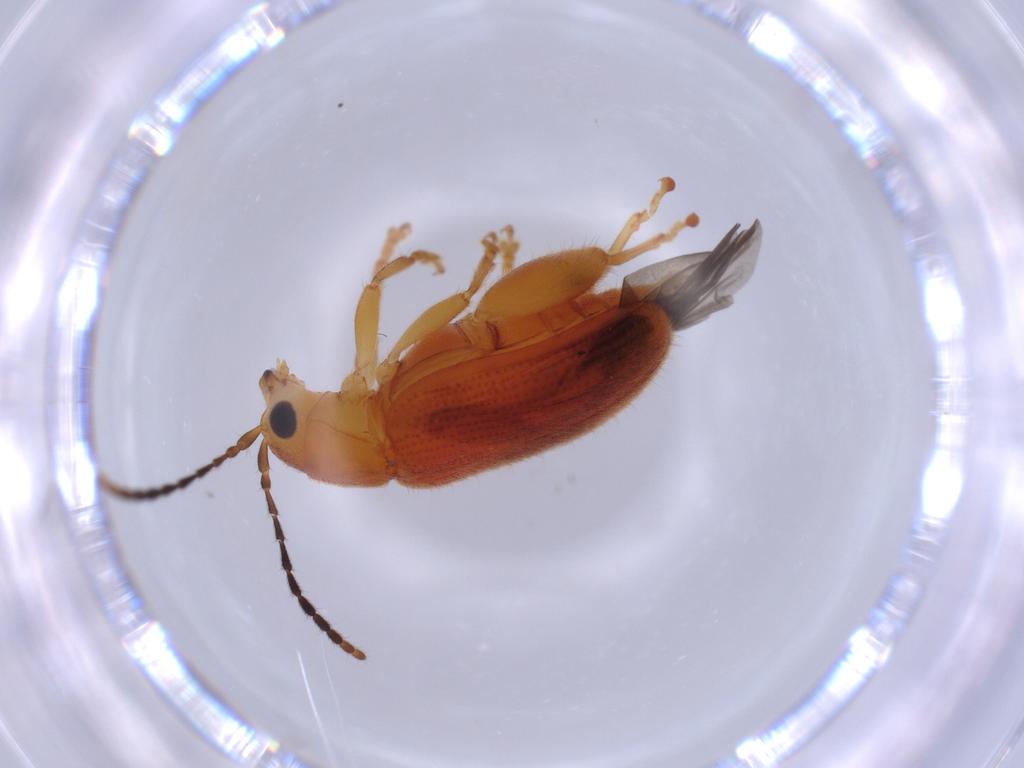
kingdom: Animalia
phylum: Arthropoda
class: Insecta
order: Coleoptera
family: Chrysomelidae
